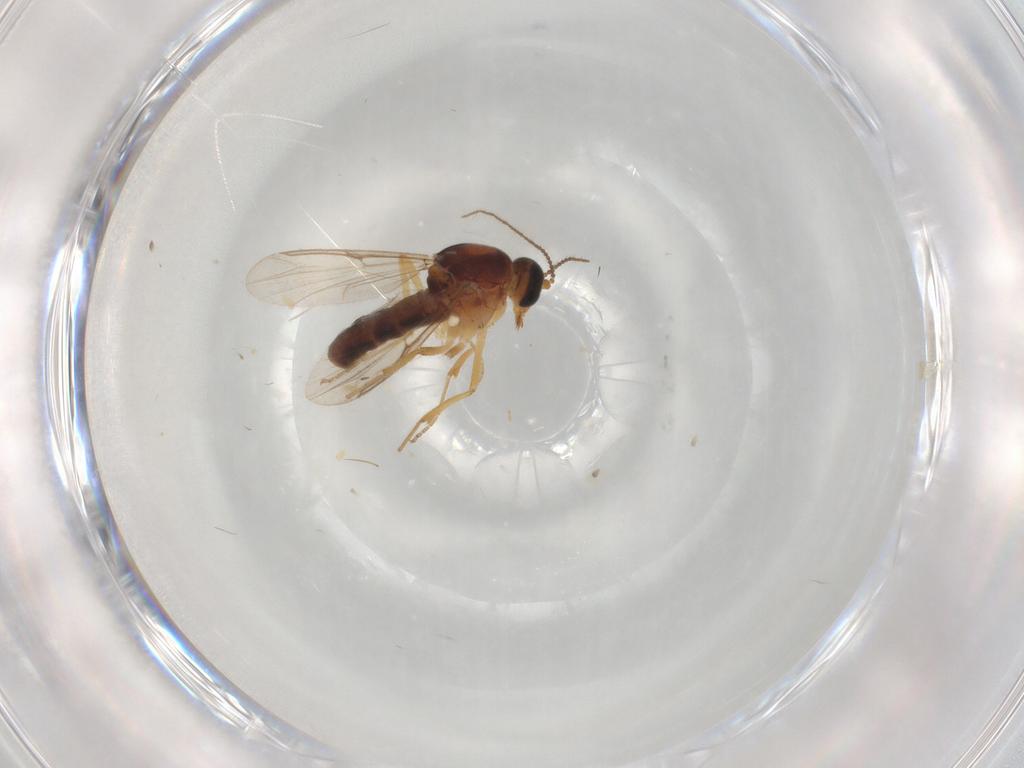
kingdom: Animalia
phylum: Arthropoda
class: Insecta
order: Diptera
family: Ceratopogonidae
